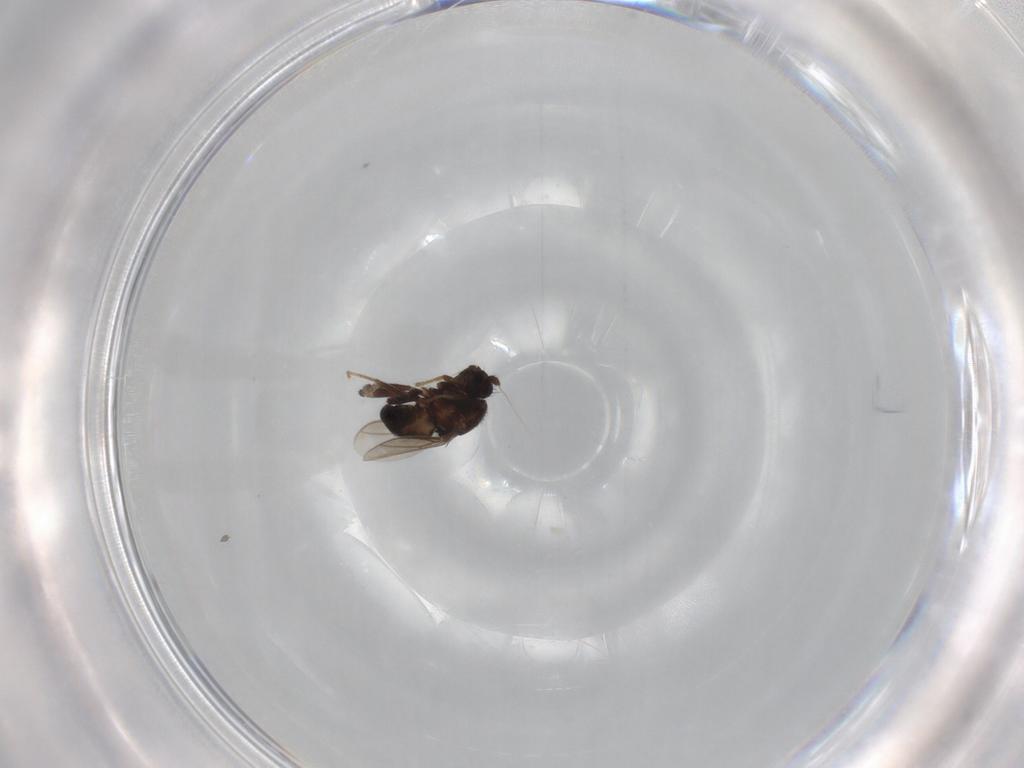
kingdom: Animalia
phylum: Arthropoda
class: Insecta
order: Diptera
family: Sphaeroceridae
